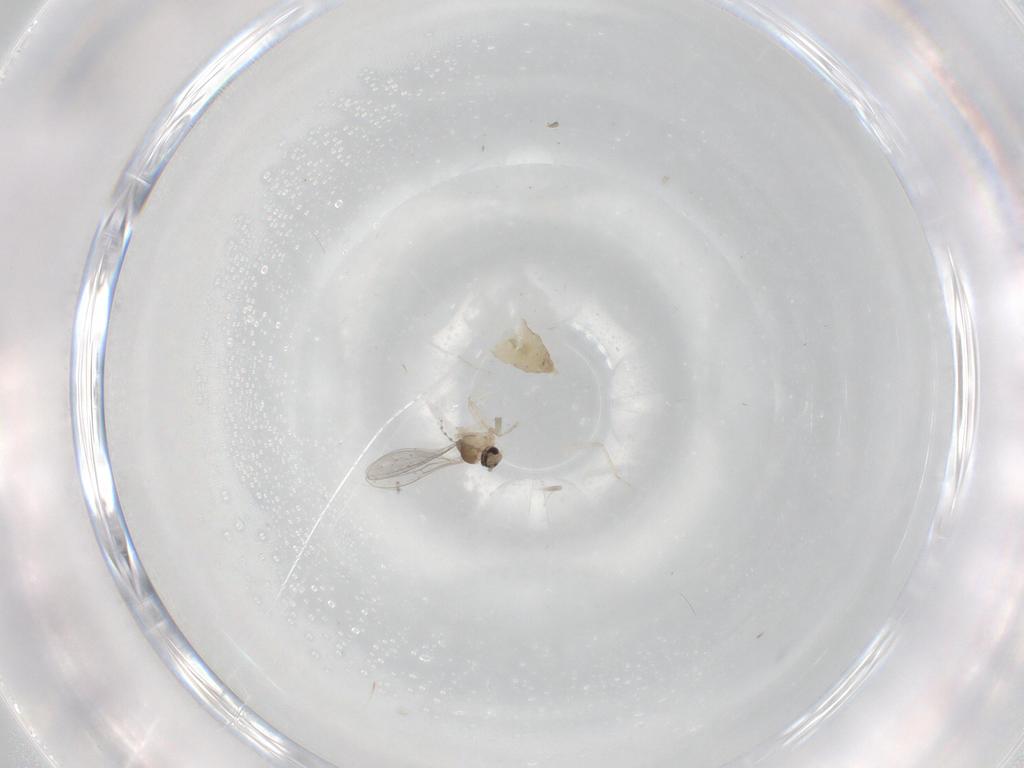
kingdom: Animalia
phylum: Arthropoda
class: Insecta
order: Diptera
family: Cecidomyiidae
